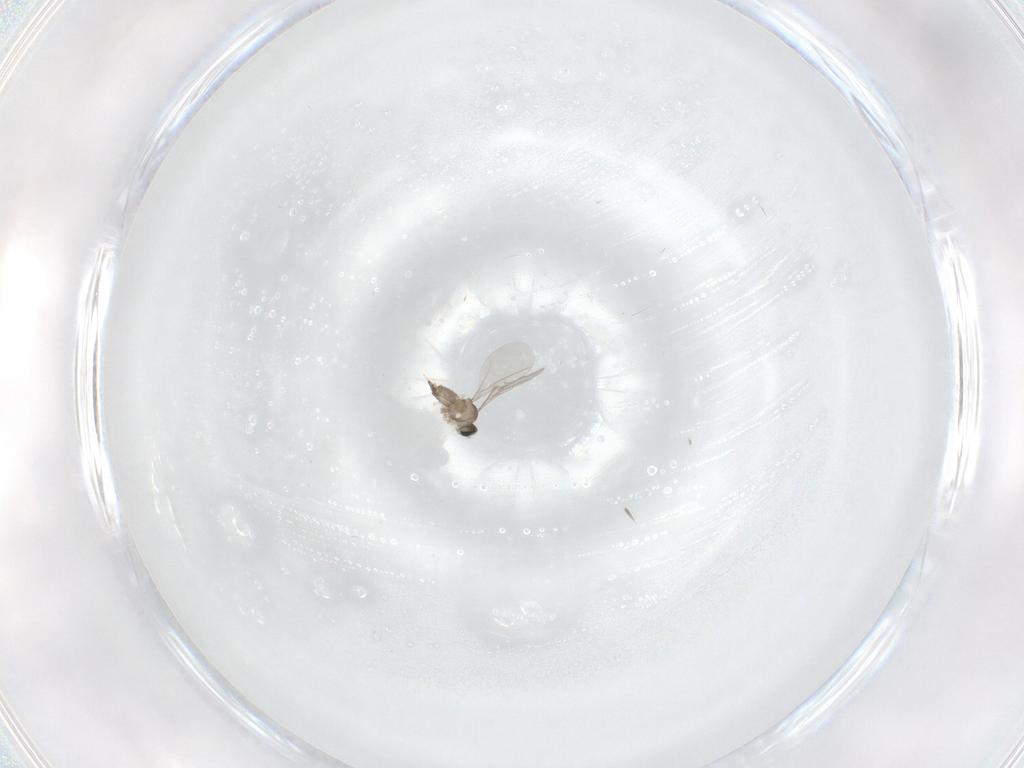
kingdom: Animalia
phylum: Arthropoda
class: Insecta
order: Diptera
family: Cecidomyiidae
